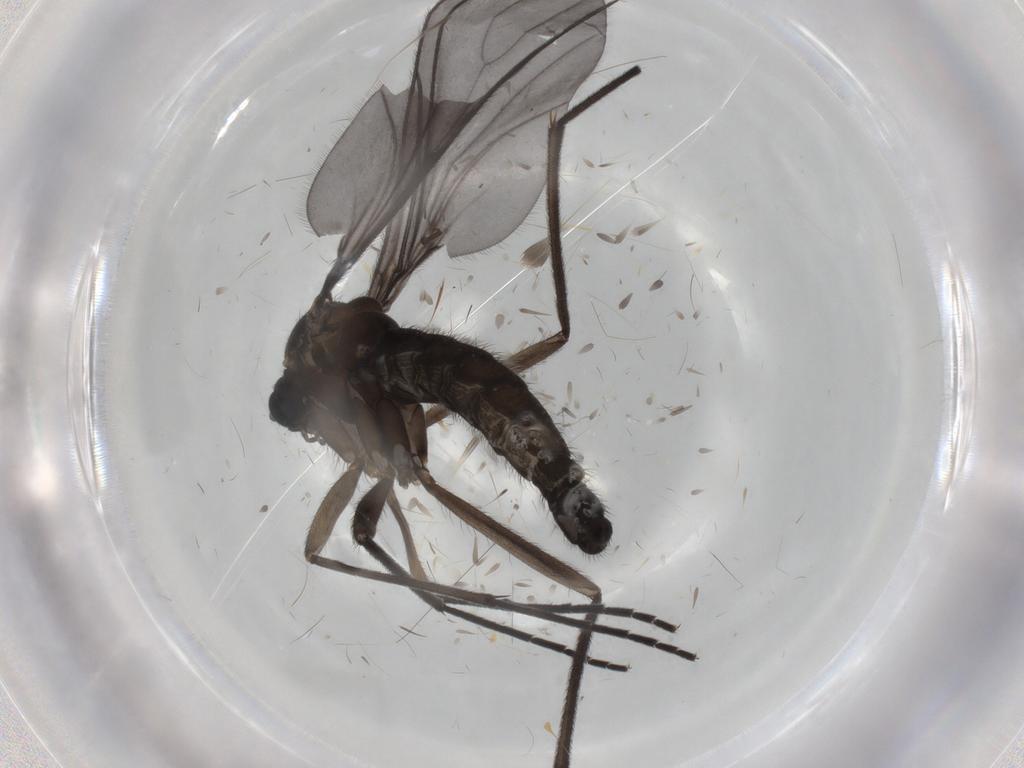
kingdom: Animalia
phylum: Arthropoda
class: Insecta
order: Diptera
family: Sciaridae
